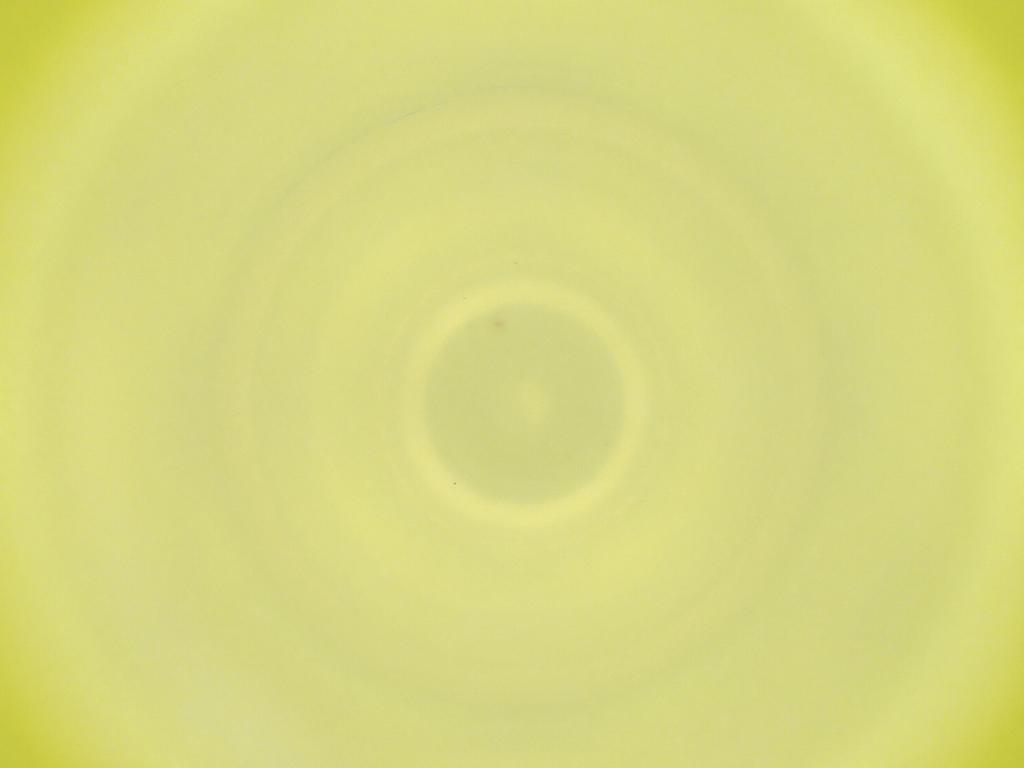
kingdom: Animalia
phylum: Arthropoda
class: Insecta
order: Diptera
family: Cecidomyiidae
